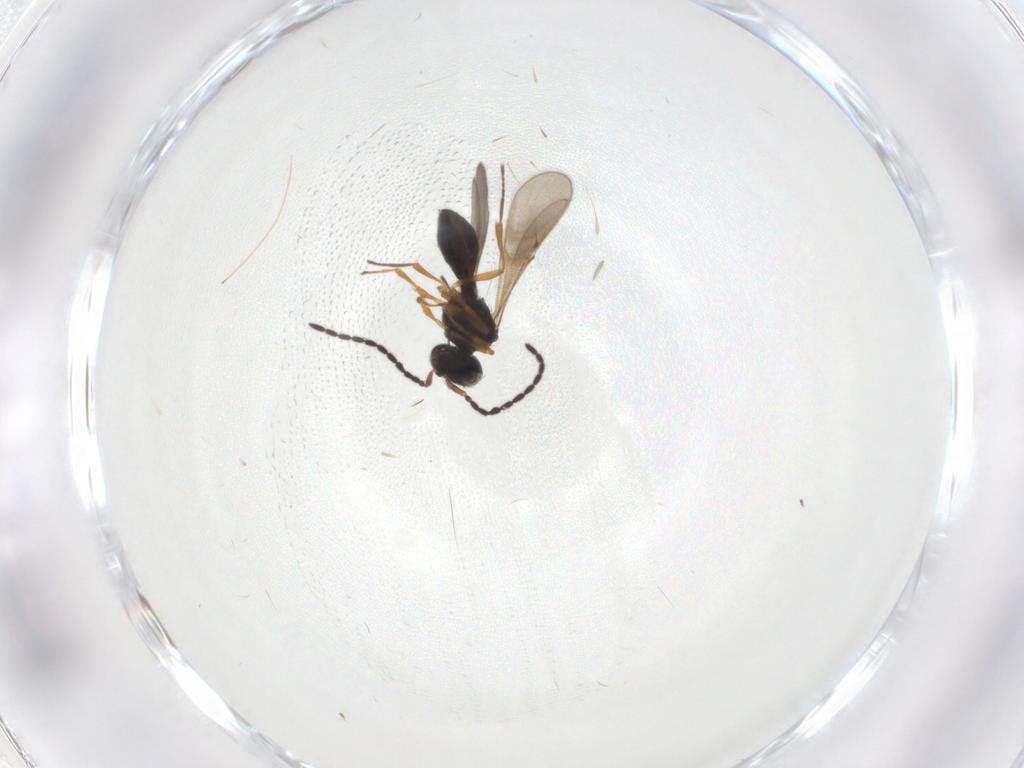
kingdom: Animalia
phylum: Arthropoda
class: Insecta
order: Hymenoptera
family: Scelionidae
